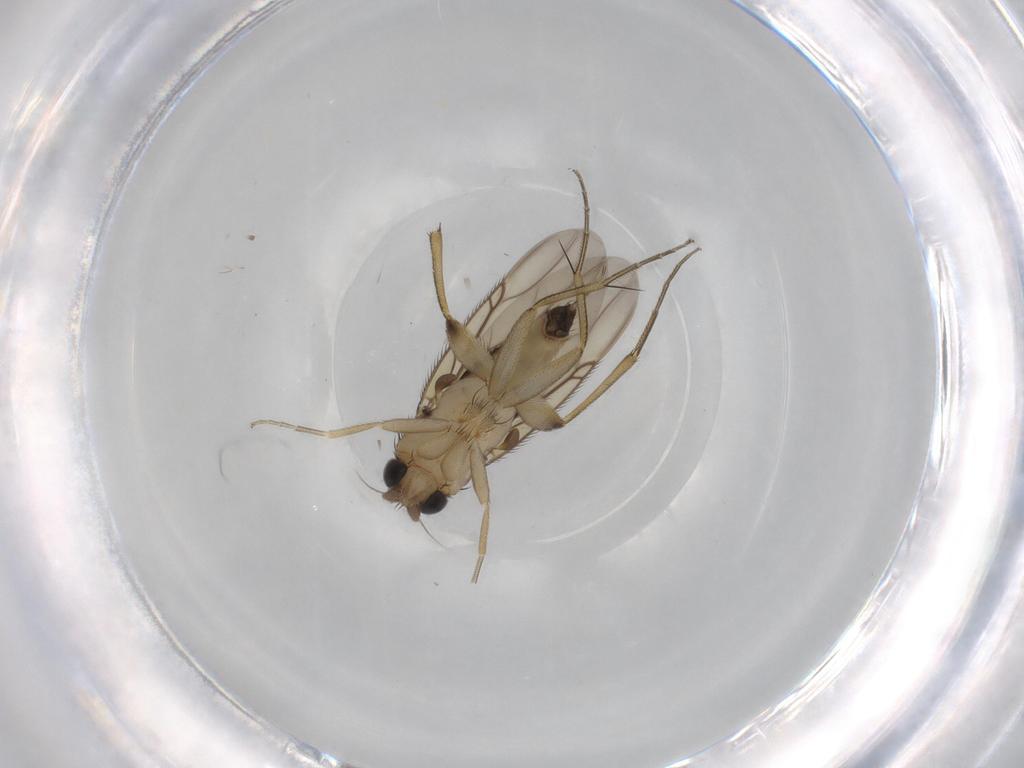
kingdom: Animalia
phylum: Arthropoda
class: Insecta
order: Diptera
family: Phoridae
